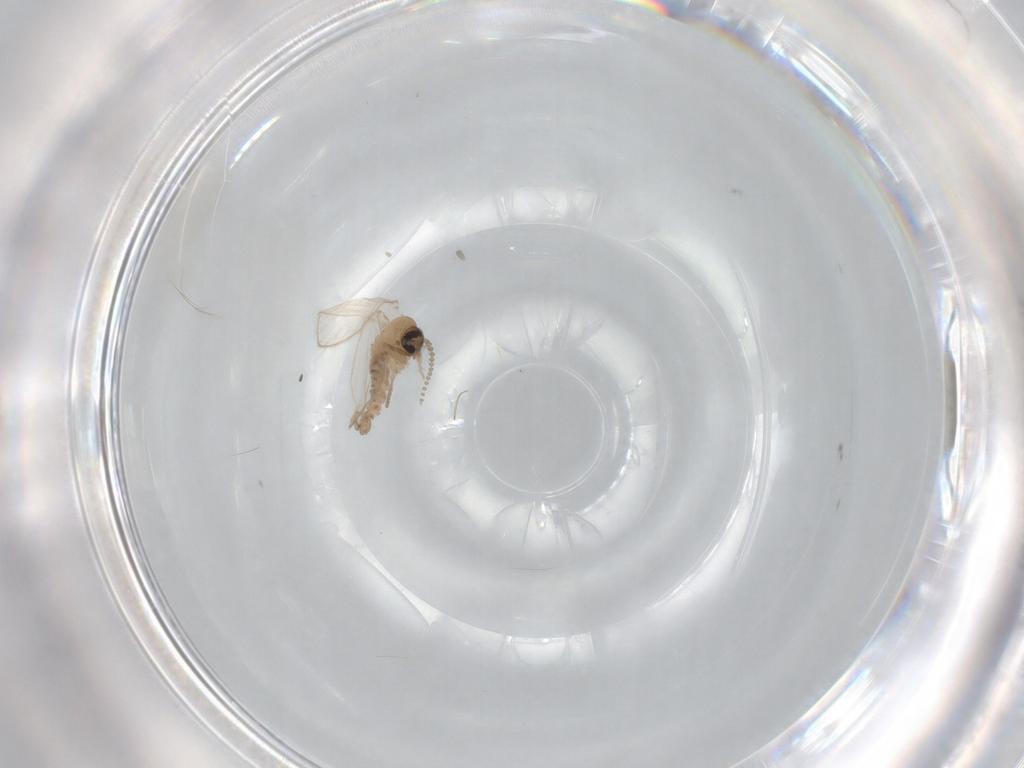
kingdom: Animalia
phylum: Arthropoda
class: Insecta
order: Diptera
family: Psychodidae
